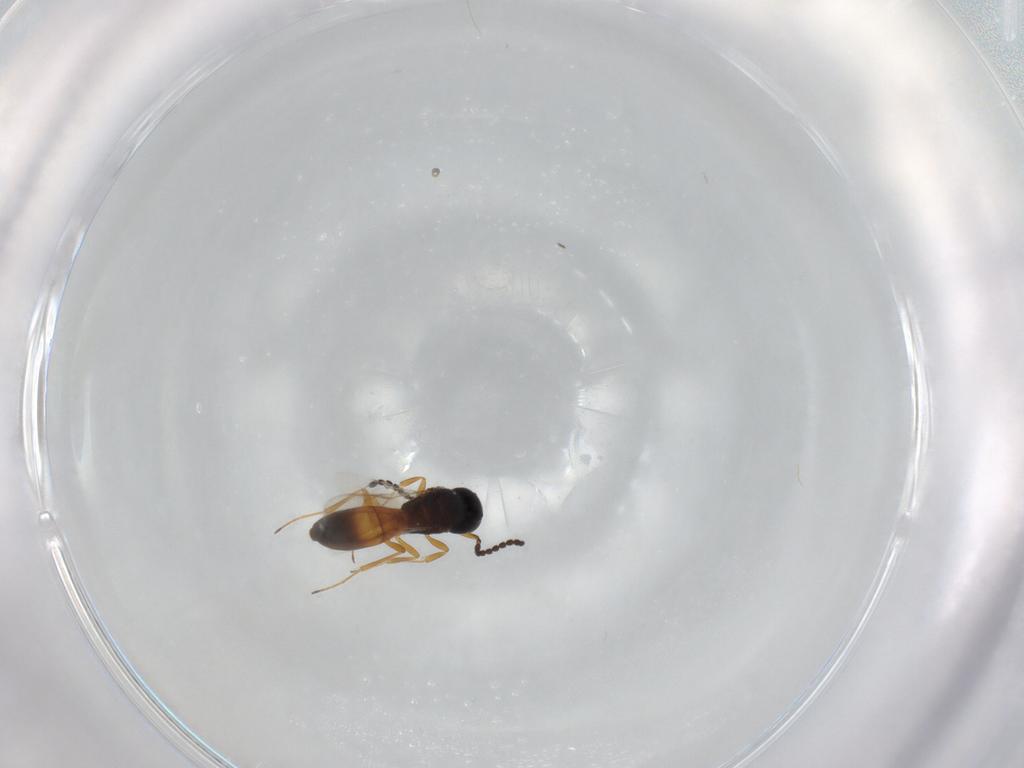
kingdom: Animalia
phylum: Arthropoda
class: Insecta
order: Hymenoptera
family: Scelionidae
